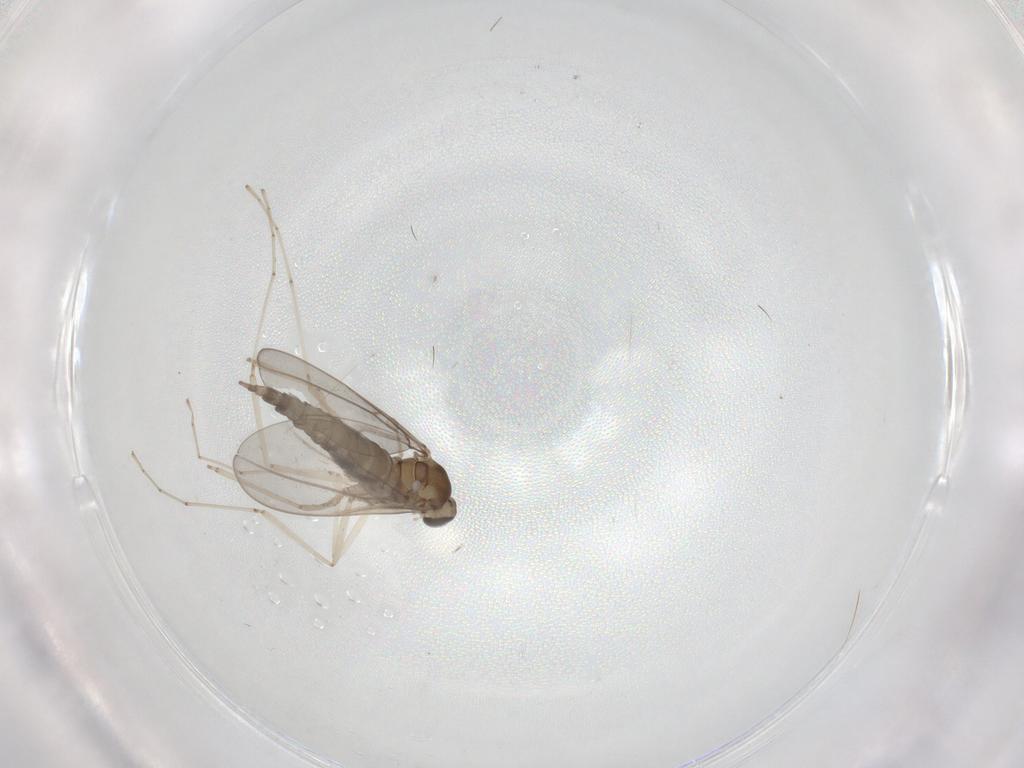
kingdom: Animalia
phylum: Arthropoda
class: Insecta
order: Diptera
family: Cecidomyiidae
